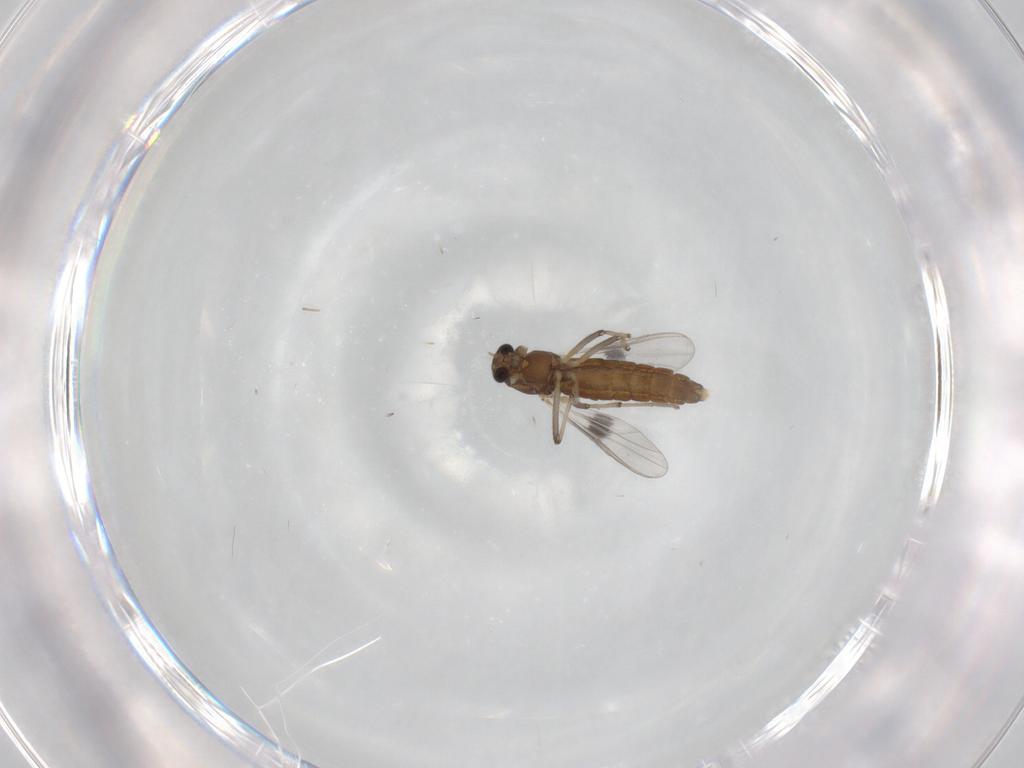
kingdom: Animalia
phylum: Arthropoda
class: Insecta
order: Diptera
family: Chironomidae
